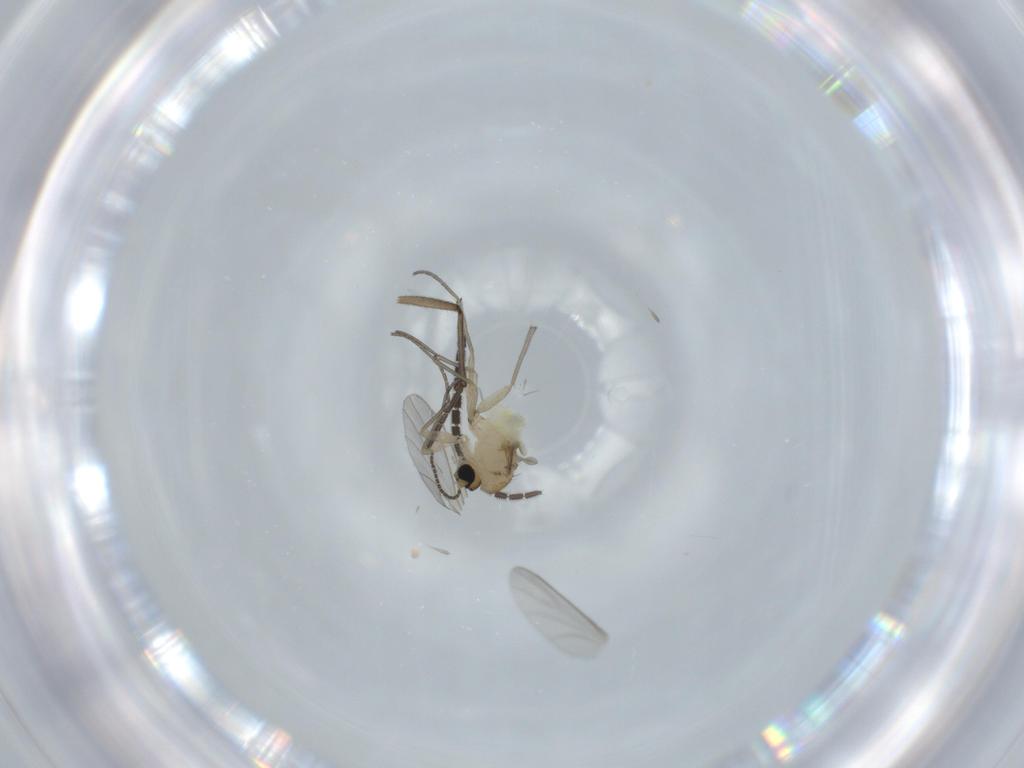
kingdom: Animalia
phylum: Arthropoda
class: Insecta
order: Diptera
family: Sciaridae
